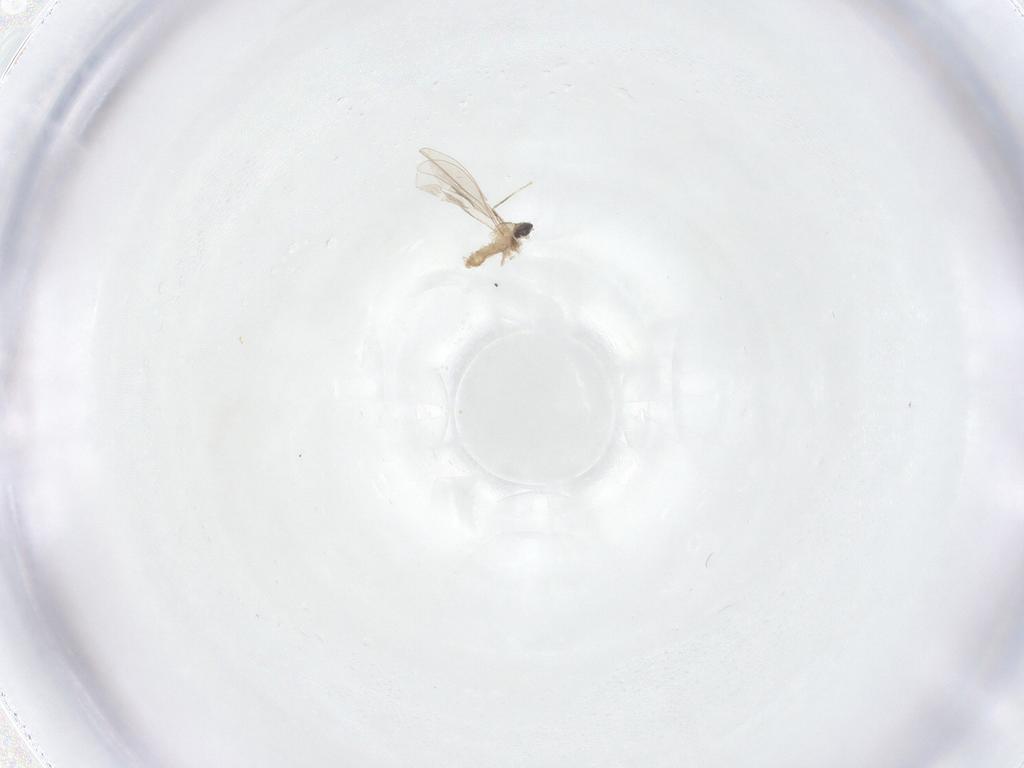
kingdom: Animalia
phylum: Arthropoda
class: Insecta
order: Diptera
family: Cecidomyiidae
